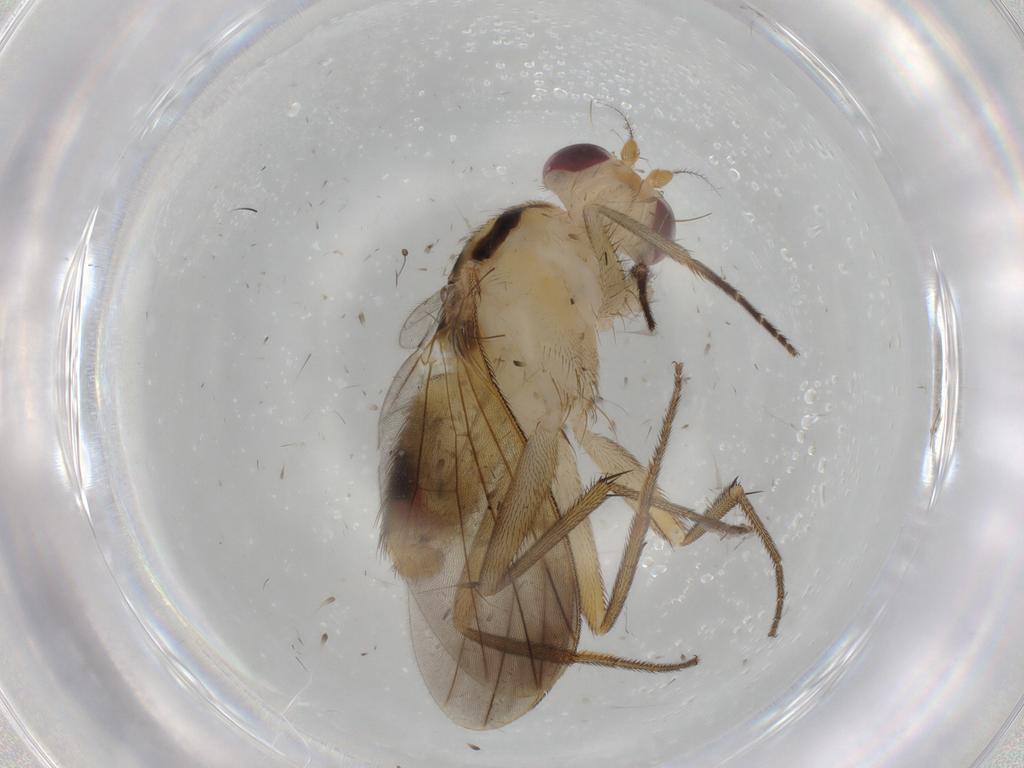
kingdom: Animalia
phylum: Arthropoda
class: Insecta
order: Diptera
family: Clusiidae
